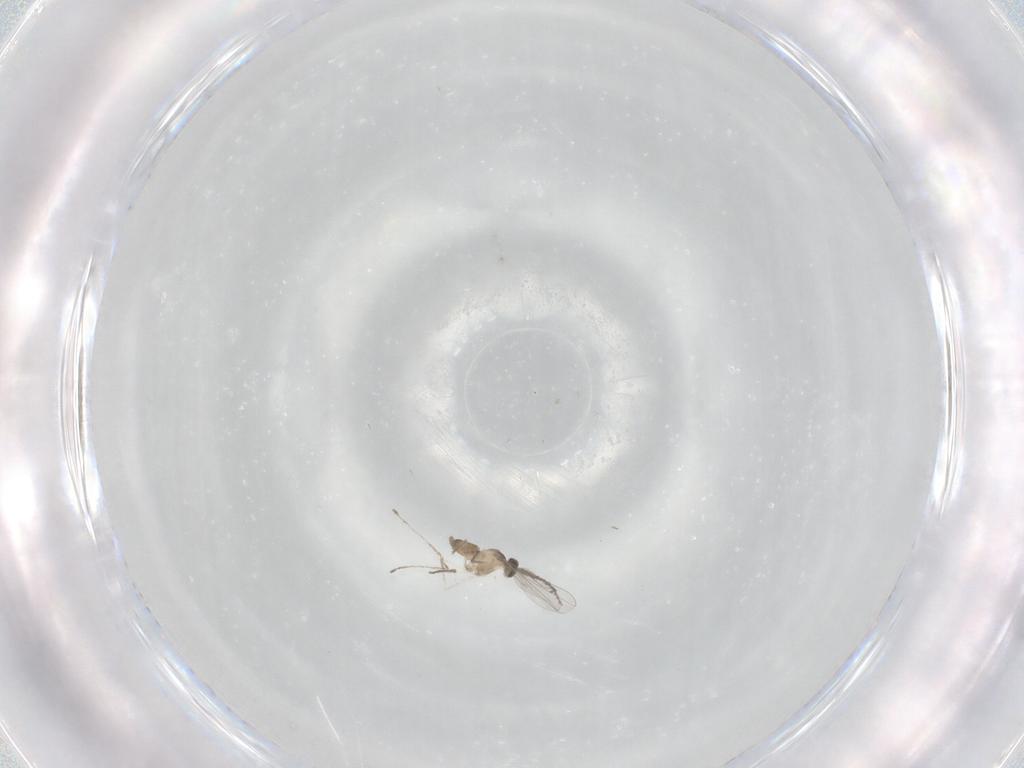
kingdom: Animalia
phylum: Arthropoda
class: Insecta
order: Diptera
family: Cecidomyiidae
